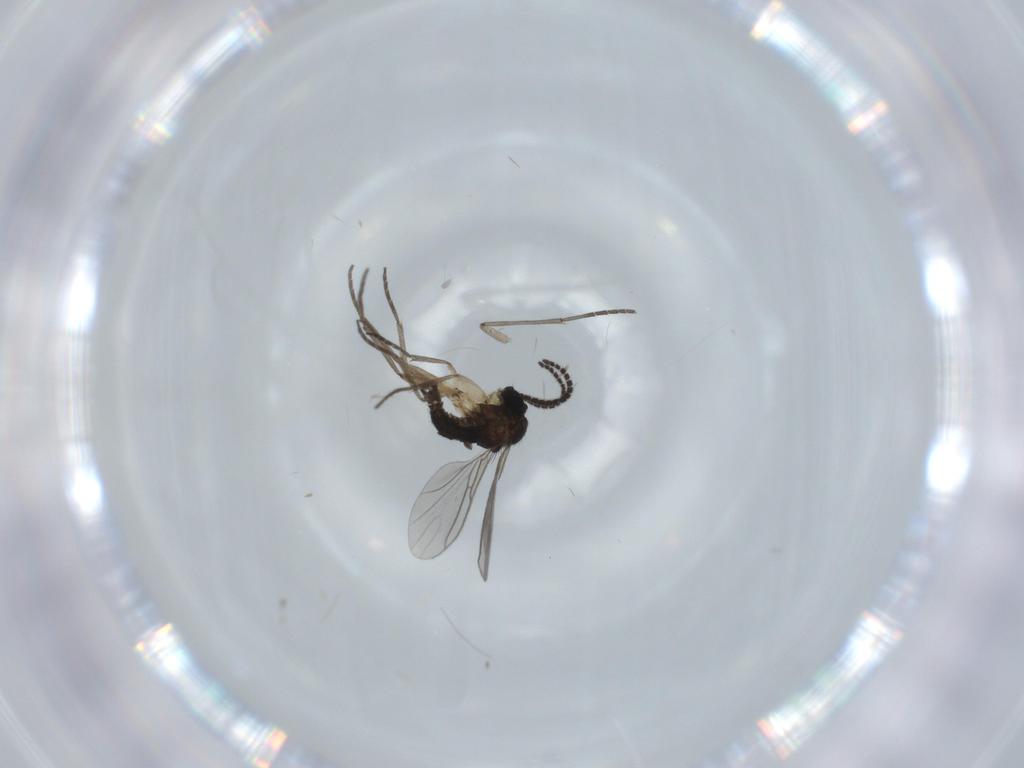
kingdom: Animalia
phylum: Arthropoda
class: Insecta
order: Diptera
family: Sciaridae
